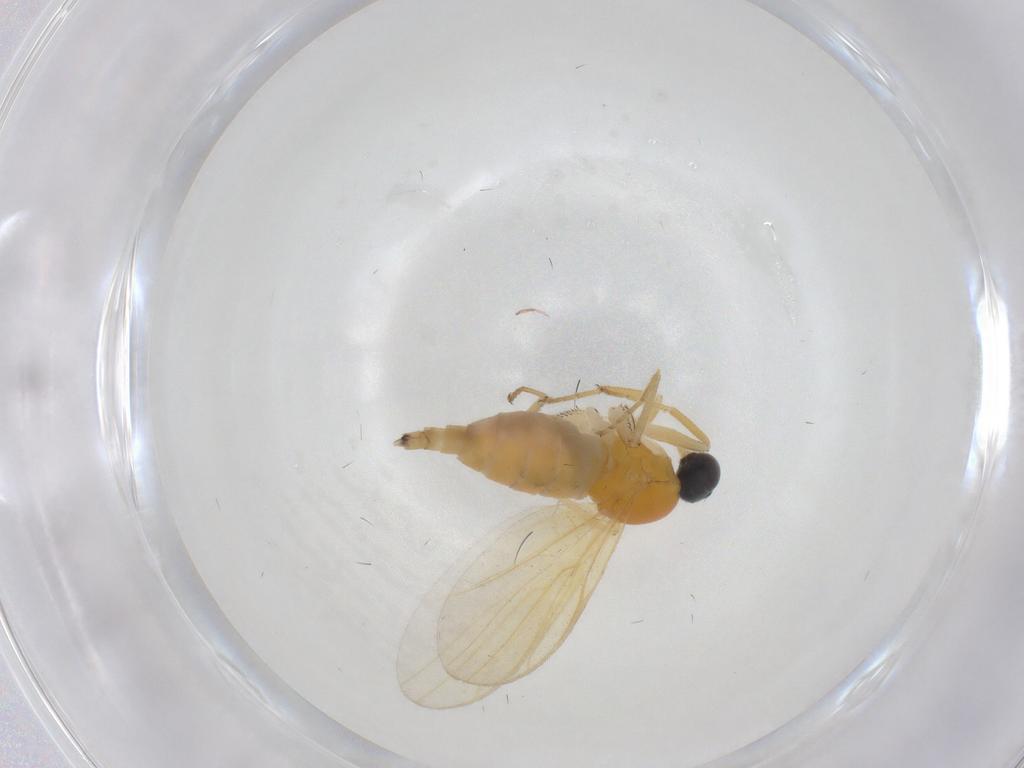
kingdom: Animalia
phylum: Arthropoda
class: Insecta
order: Diptera
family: Hybotidae
